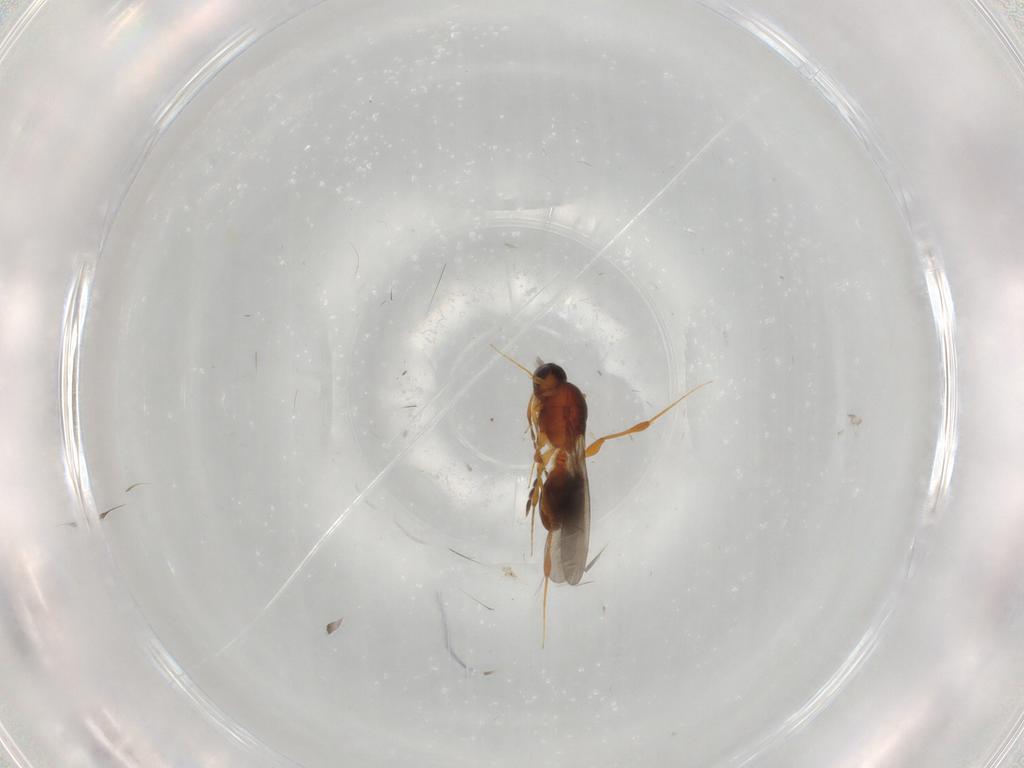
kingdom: Animalia
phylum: Arthropoda
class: Insecta
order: Hymenoptera
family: Platygastridae
